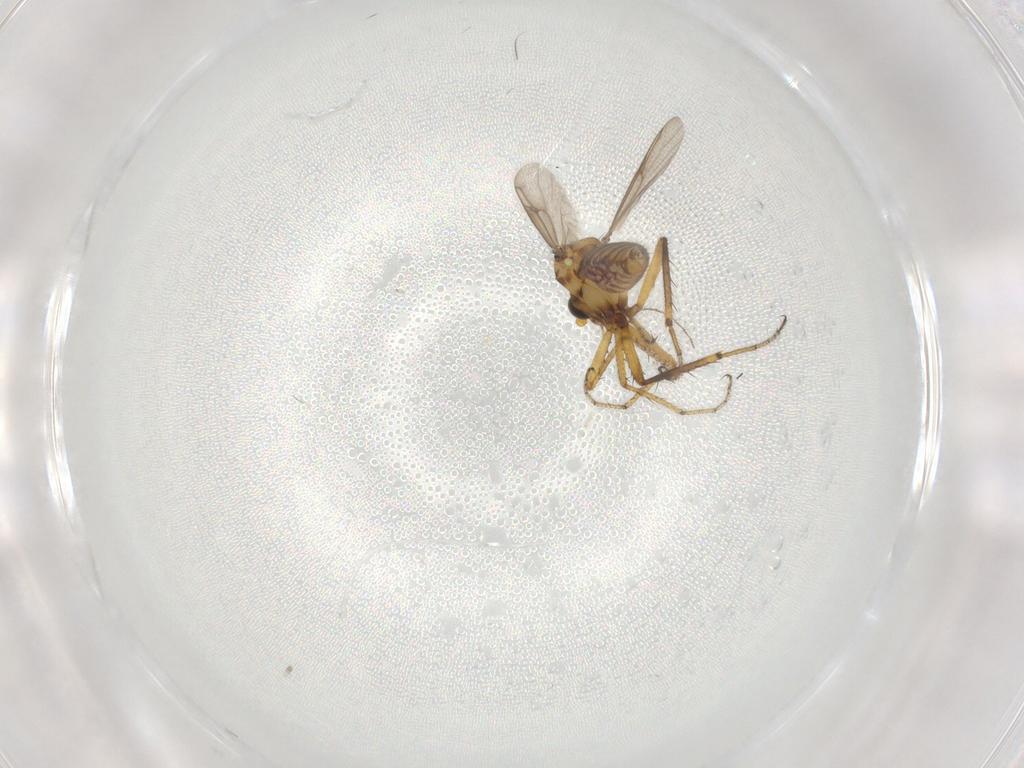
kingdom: Animalia
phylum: Arthropoda
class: Insecta
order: Diptera
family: Ceratopogonidae
